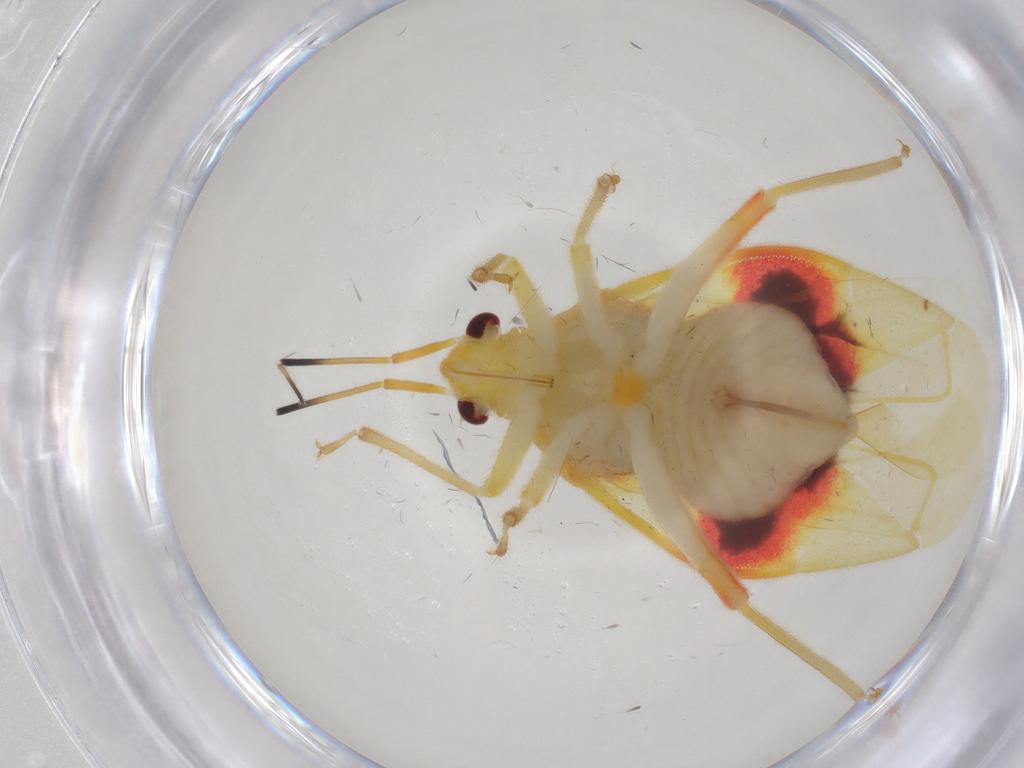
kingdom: Animalia
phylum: Arthropoda
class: Insecta
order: Hemiptera
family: Miridae
